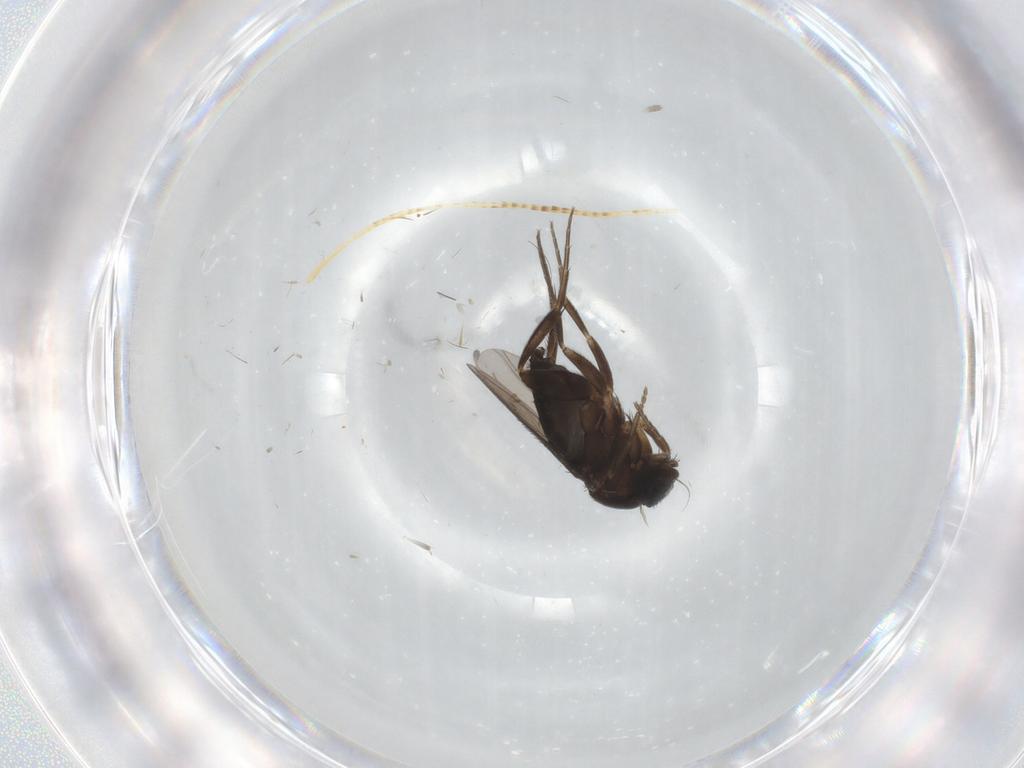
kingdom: Animalia
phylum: Arthropoda
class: Insecta
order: Diptera
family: Phoridae
